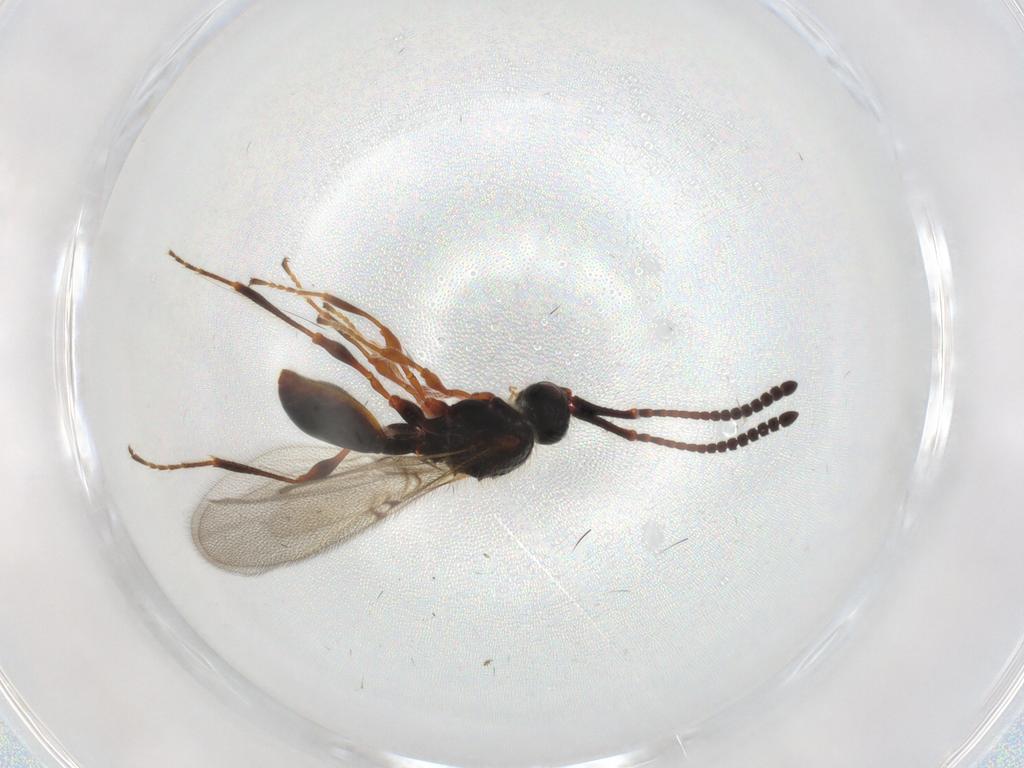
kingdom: Animalia
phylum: Arthropoda
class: Insecta
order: Hymenoptera
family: Diapriidae
